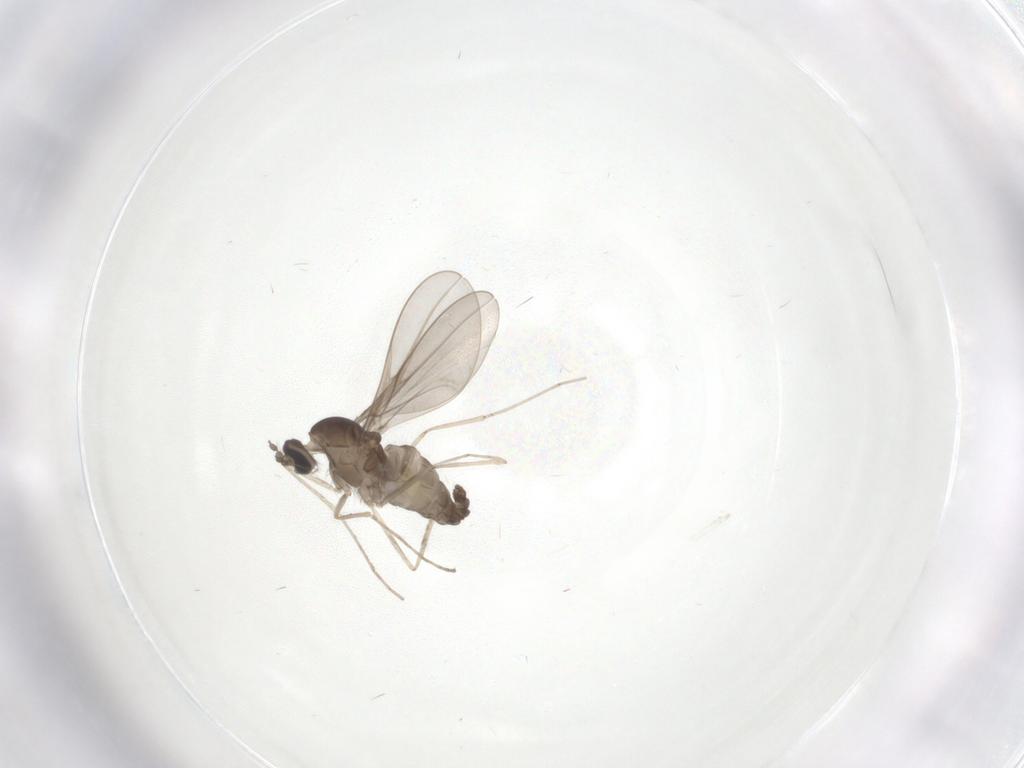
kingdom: Animalia
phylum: Arthropoda
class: Insecta
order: Diptera
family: Cecidomyiidae
